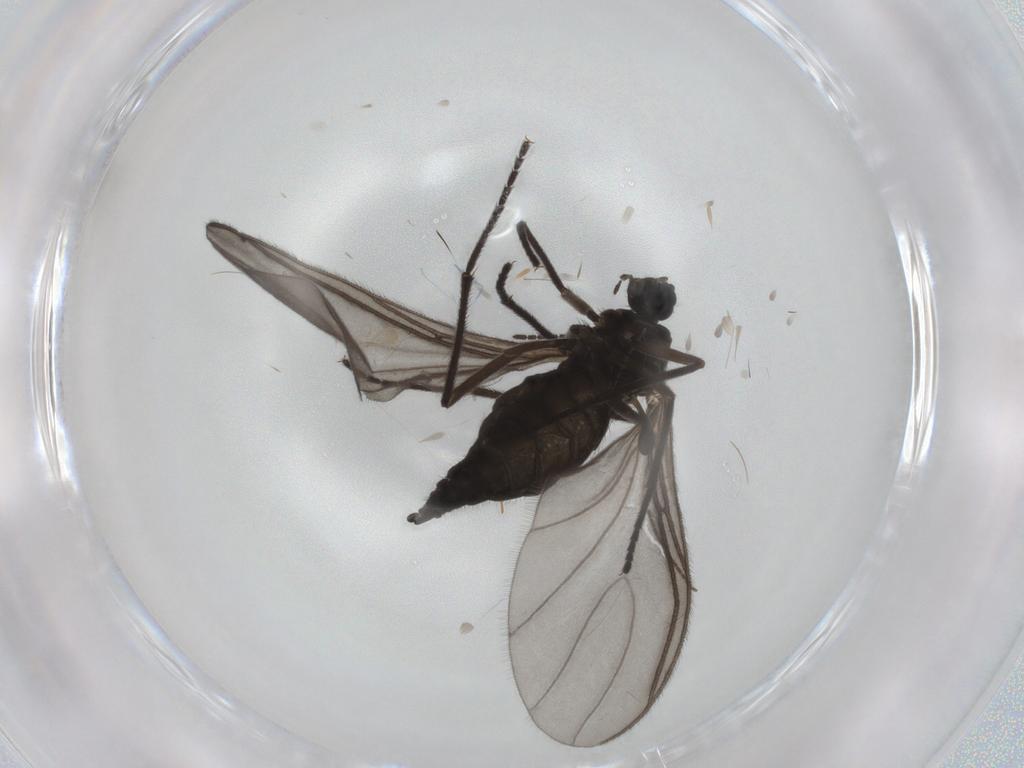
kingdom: Animalia
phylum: Arthropoda
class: Insecta
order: Diptera
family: Sciaridae
